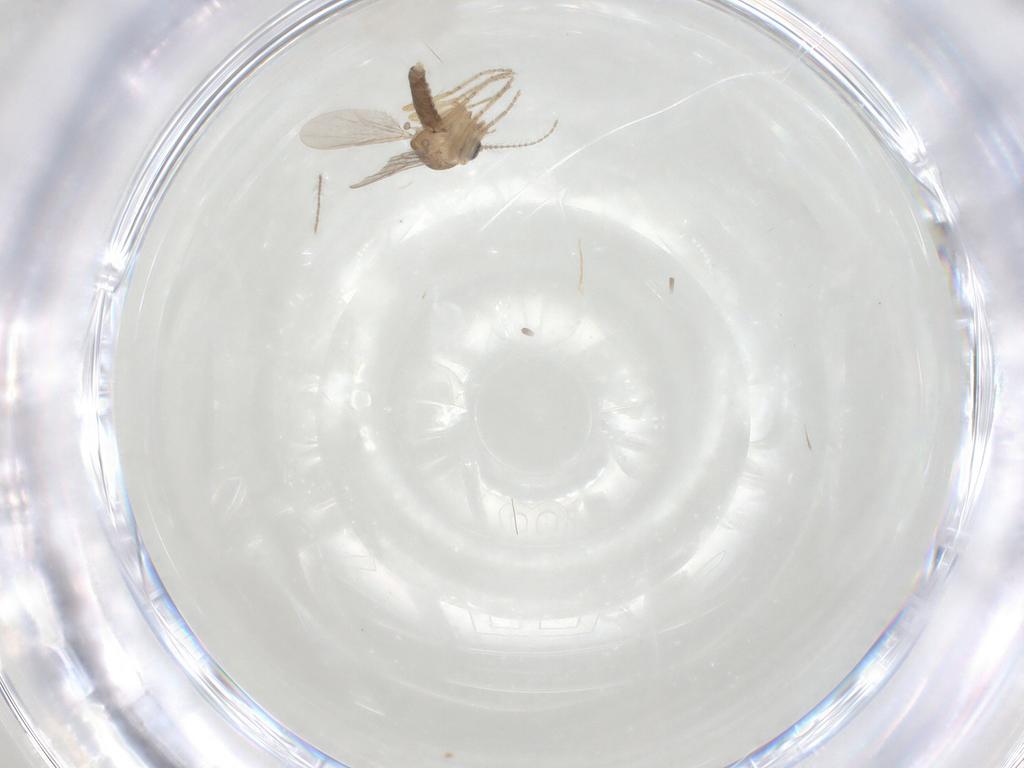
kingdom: Animalia
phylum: Arthropoda
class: Insecta
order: Diptera
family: Ceratopogonidae
